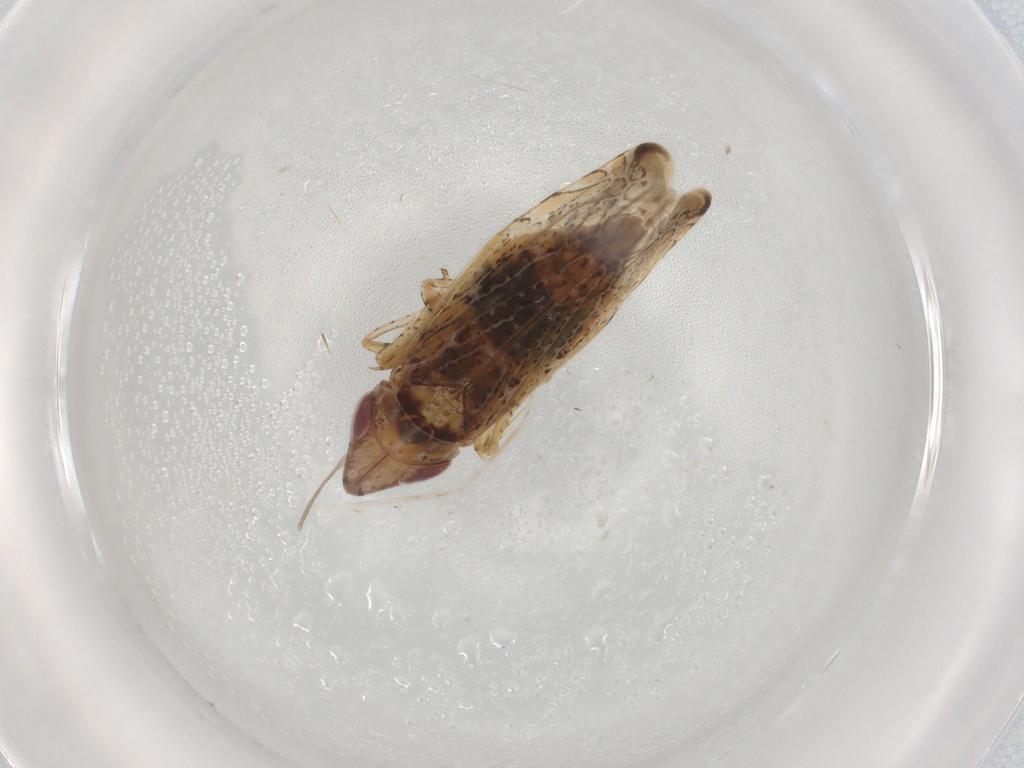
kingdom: Animalia
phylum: Arthropoda
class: Insecta
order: Hemiptera
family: Cicadellidae
